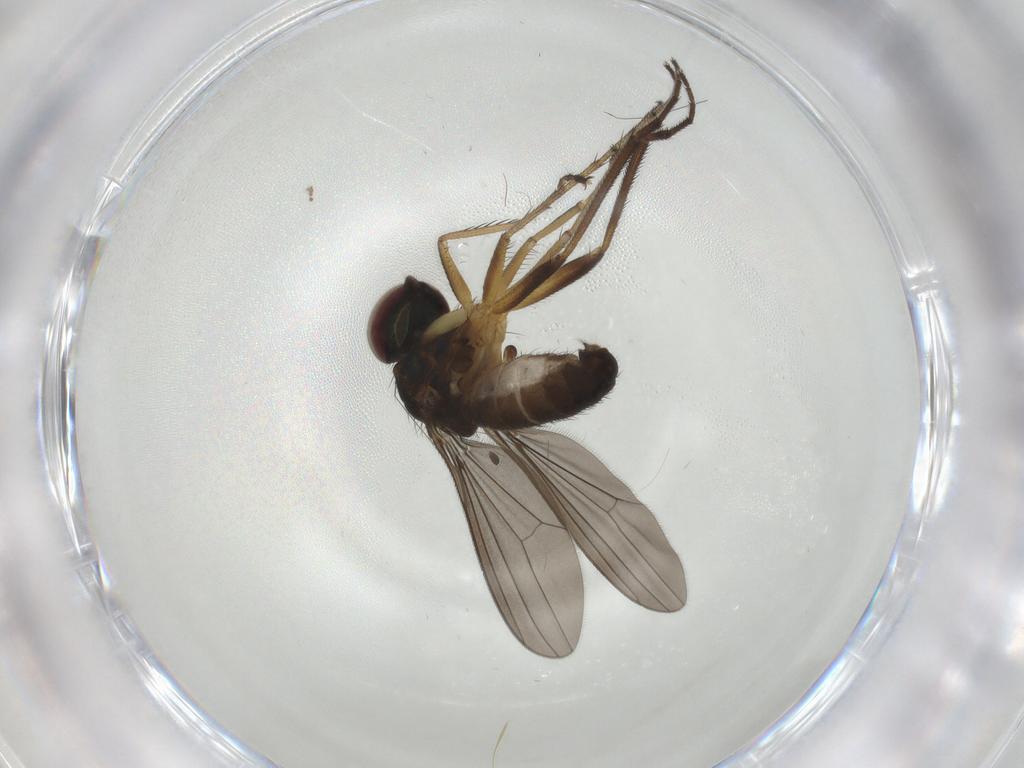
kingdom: Animalia
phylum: Arthropoda
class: Insecta
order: Diptera
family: Dolichopodidae
